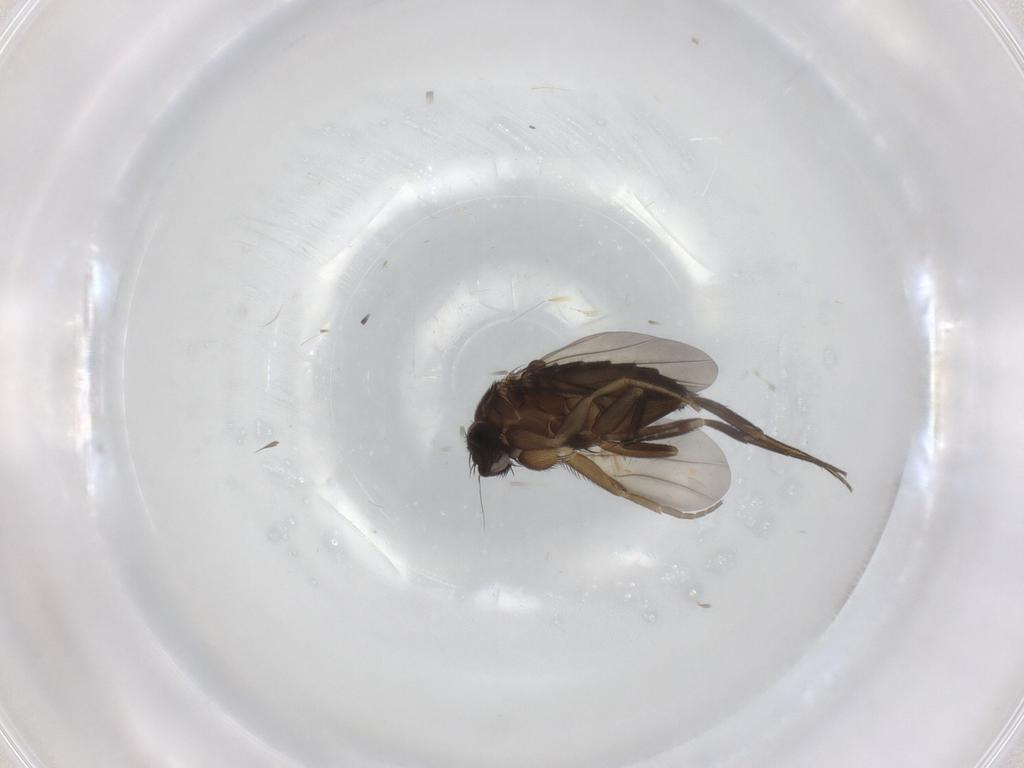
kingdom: Animalia
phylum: Arthropoda
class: Insecta
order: Diptera
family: Phoridae
